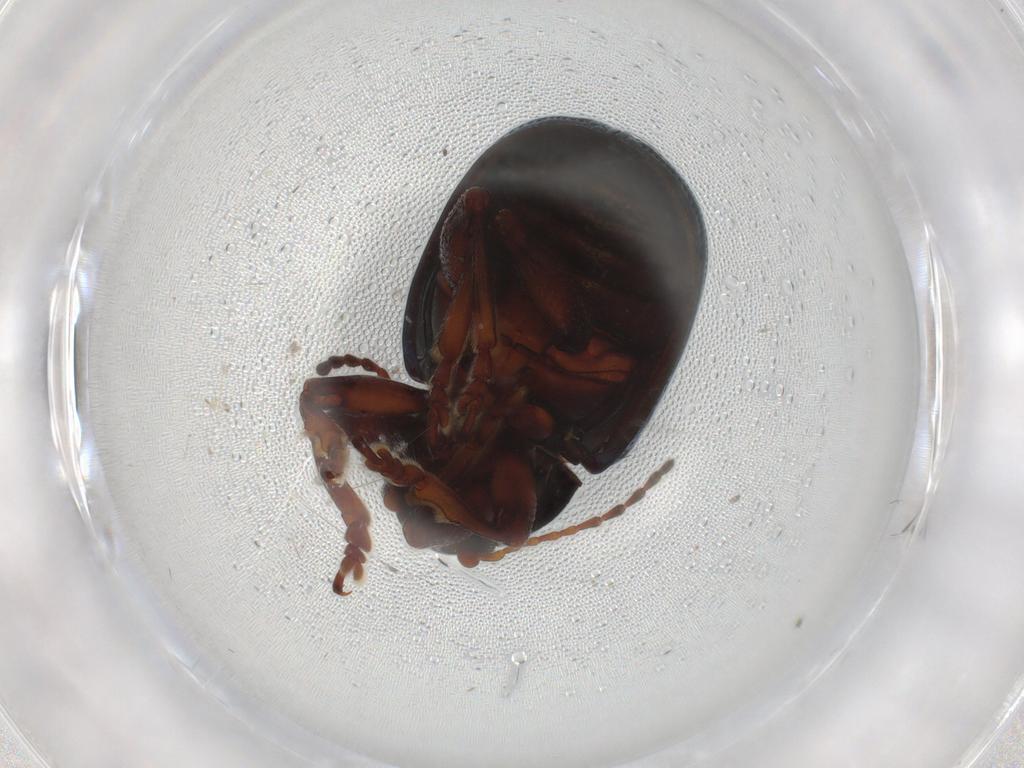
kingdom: Animalia
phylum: Arthropoda
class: Insecta
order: Coleoptera
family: Chrysomelidae
